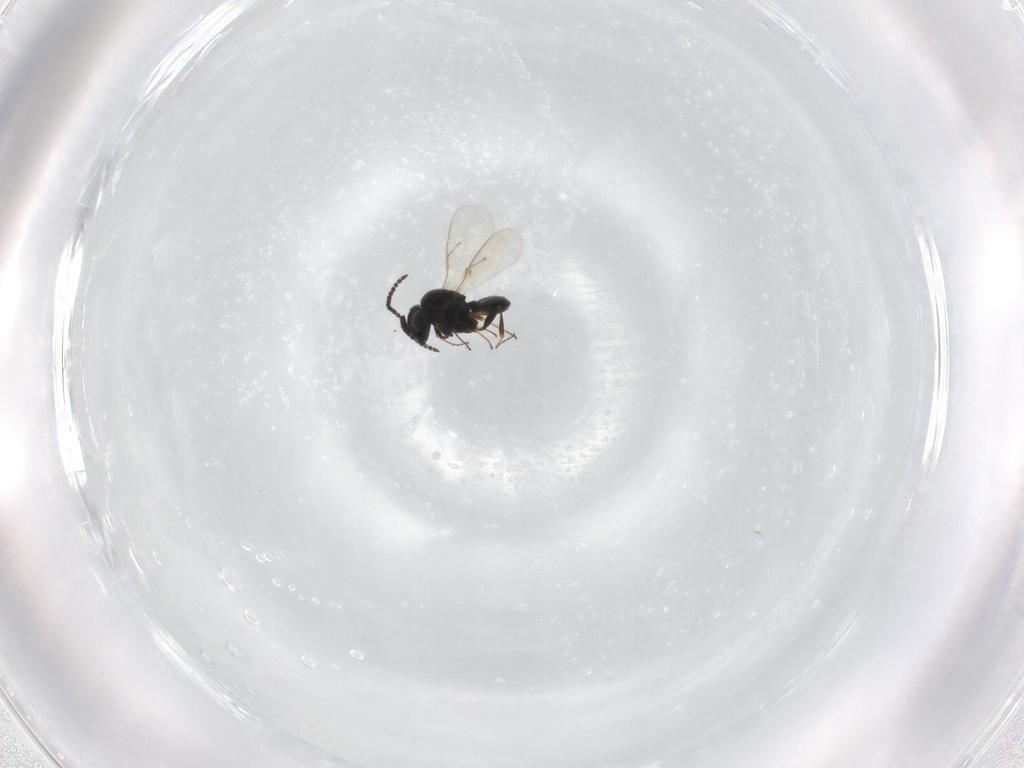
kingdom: Animalia
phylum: Arthropoda
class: Insecta
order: Hymenoptera
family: Scelionidae
